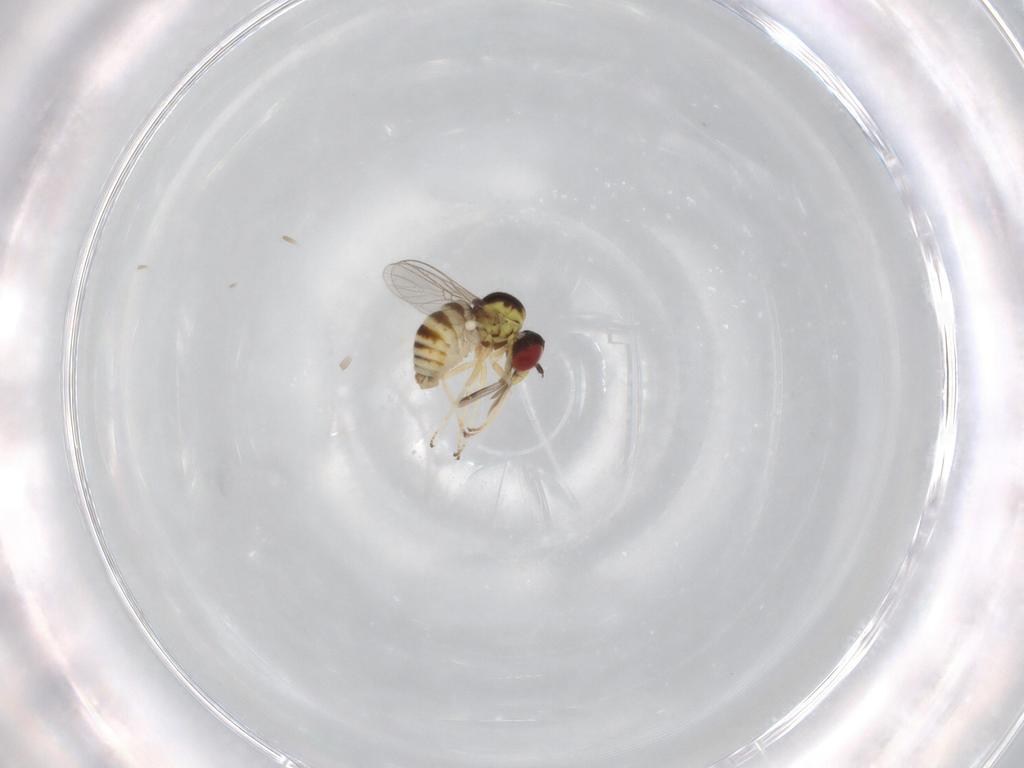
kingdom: Animalia
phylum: Arthropoda
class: Insecta
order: Diptera
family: Bombyliidae
